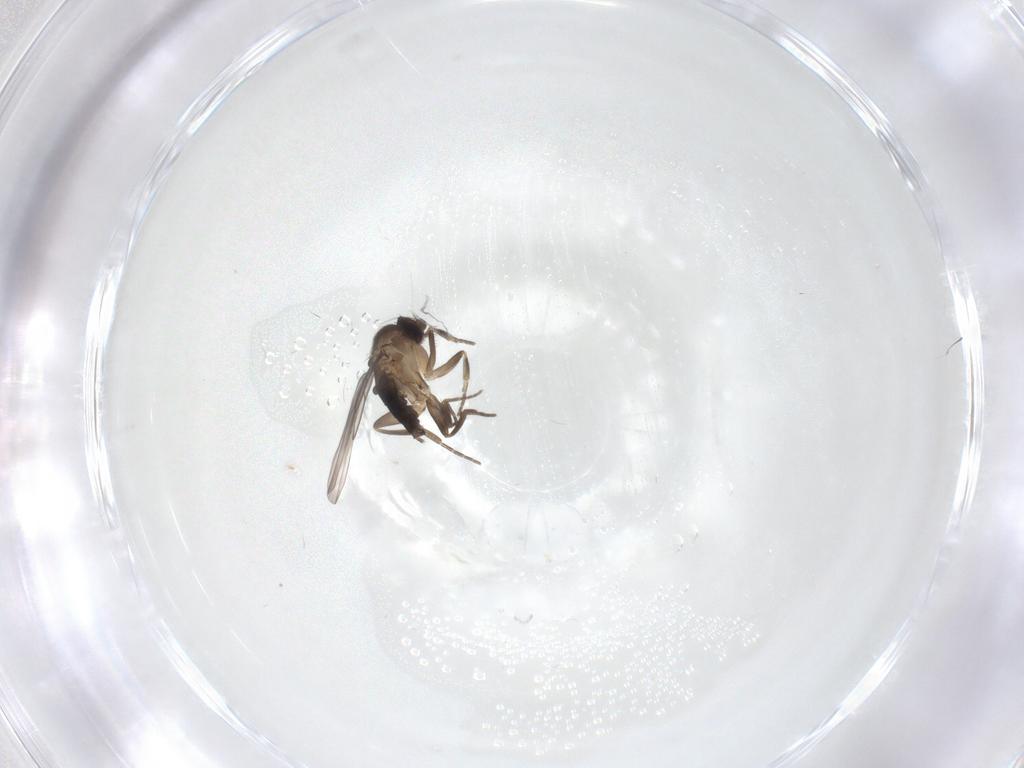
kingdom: Animalia
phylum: Arthropoda
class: Insecta
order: Diptera
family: Phoridae
